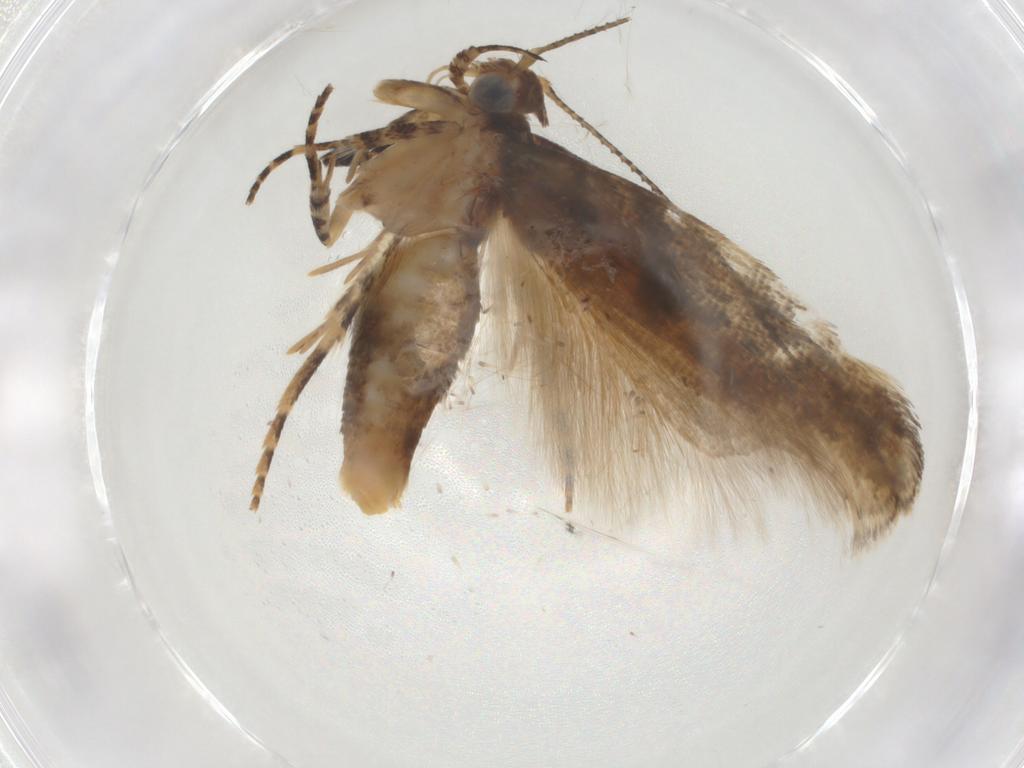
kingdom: Animalia
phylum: Arthropoda
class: Insecta
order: Lepidoptera
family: Gelechiidae
